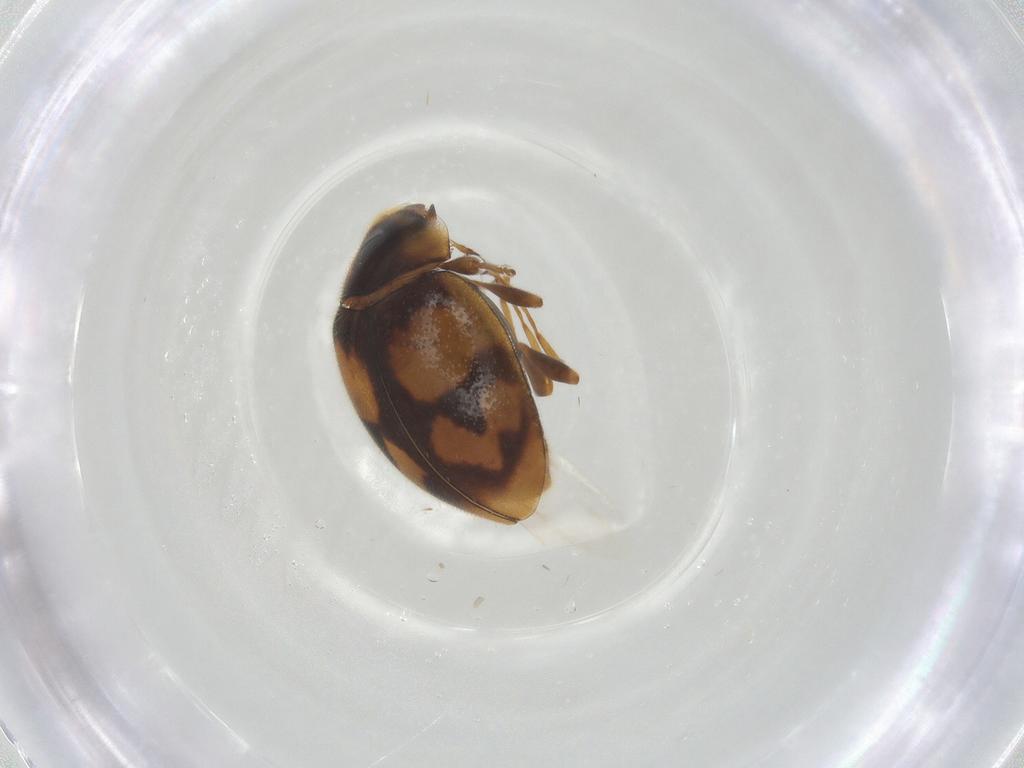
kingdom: Animalia
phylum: Arthropoda
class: Insecta
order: Coleoptera
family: Coccinellidae
